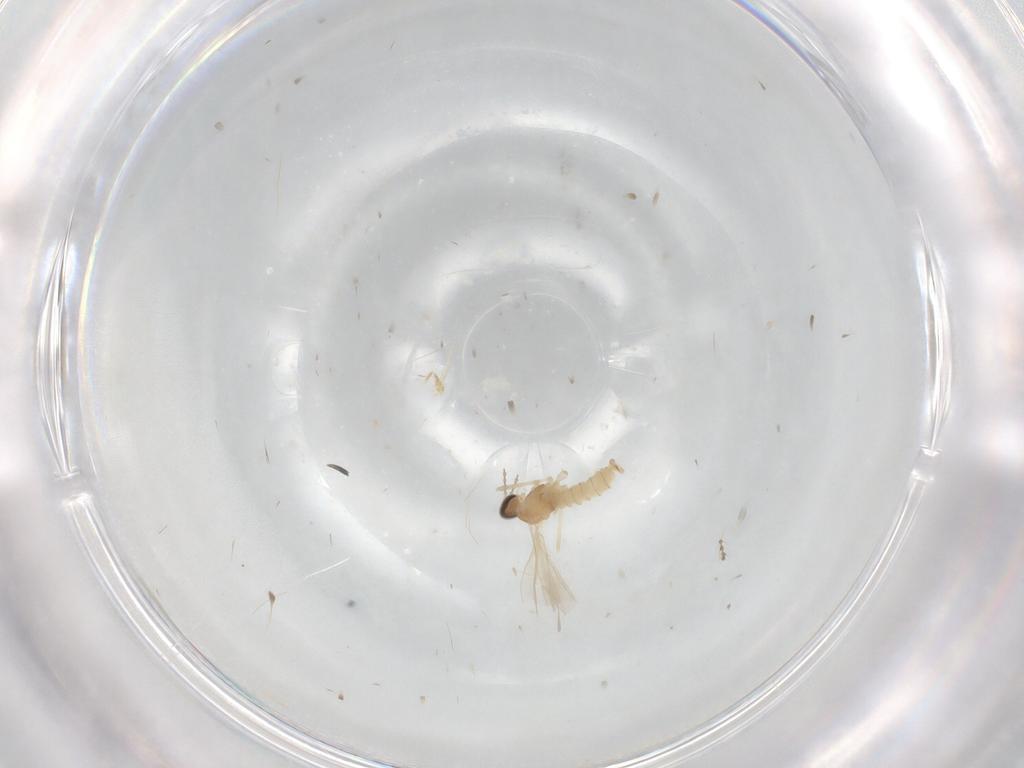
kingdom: Animalia
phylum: Arthropoda
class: Insecta
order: Diptera
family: Cecidomyiidae
